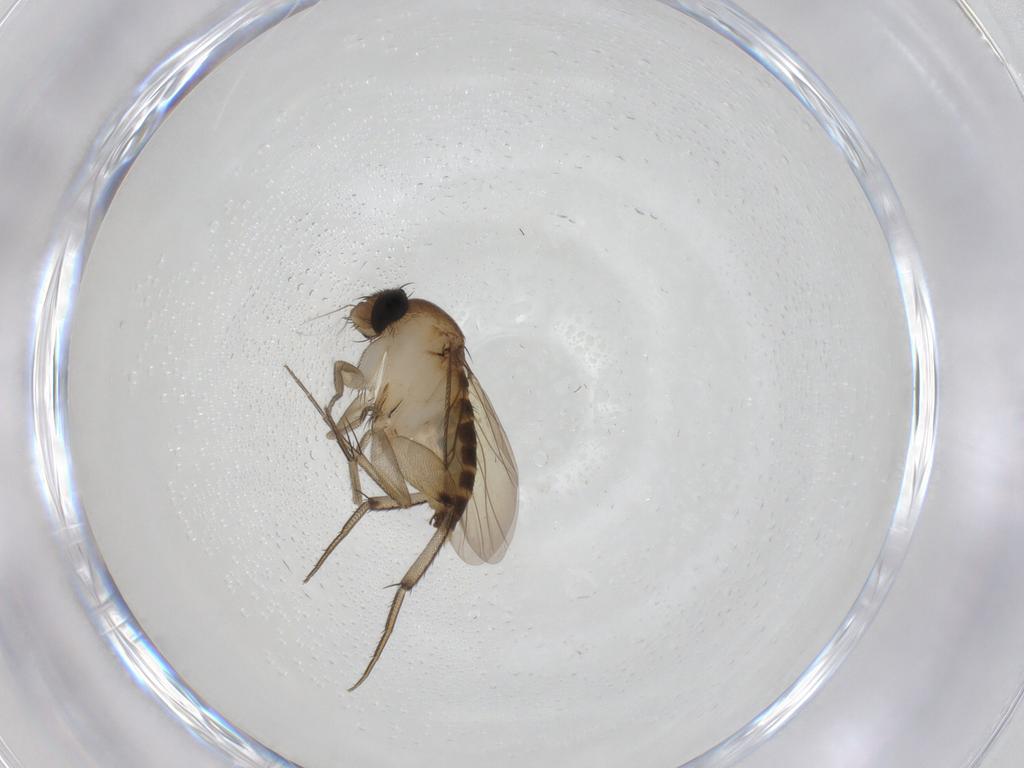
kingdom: Animalia
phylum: Arthropoda
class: Insecta
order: Diptera
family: Phoridae
